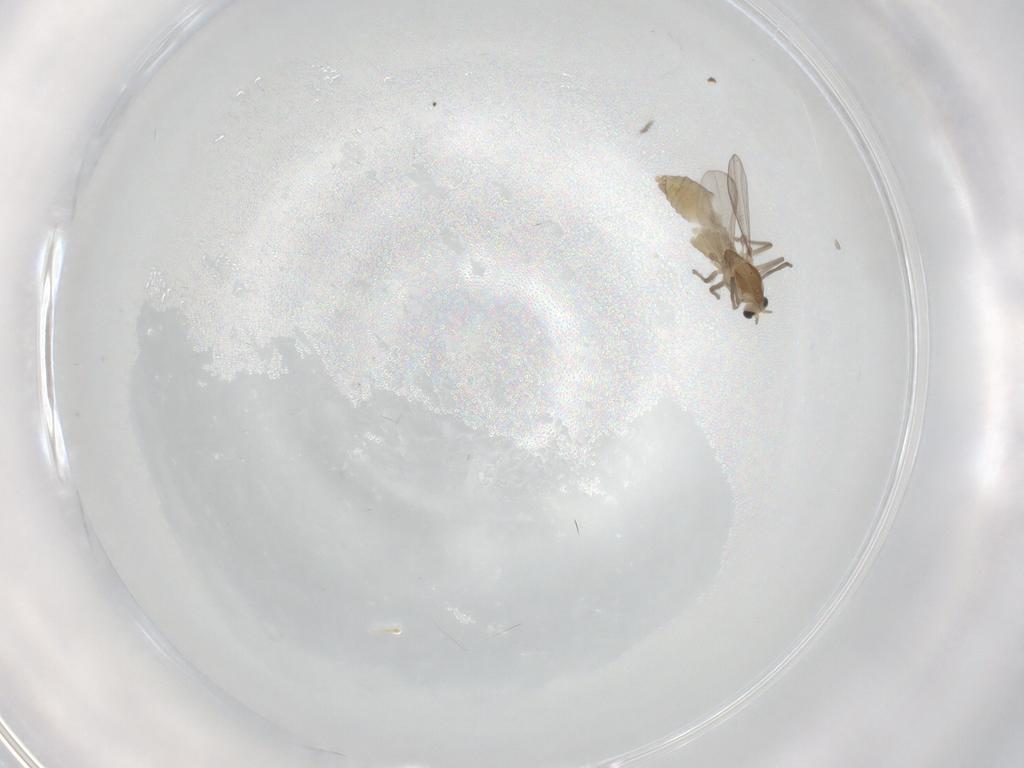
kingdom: Animalia
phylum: Arthropoda
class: Insecta
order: Diptera
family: Chironomidae
